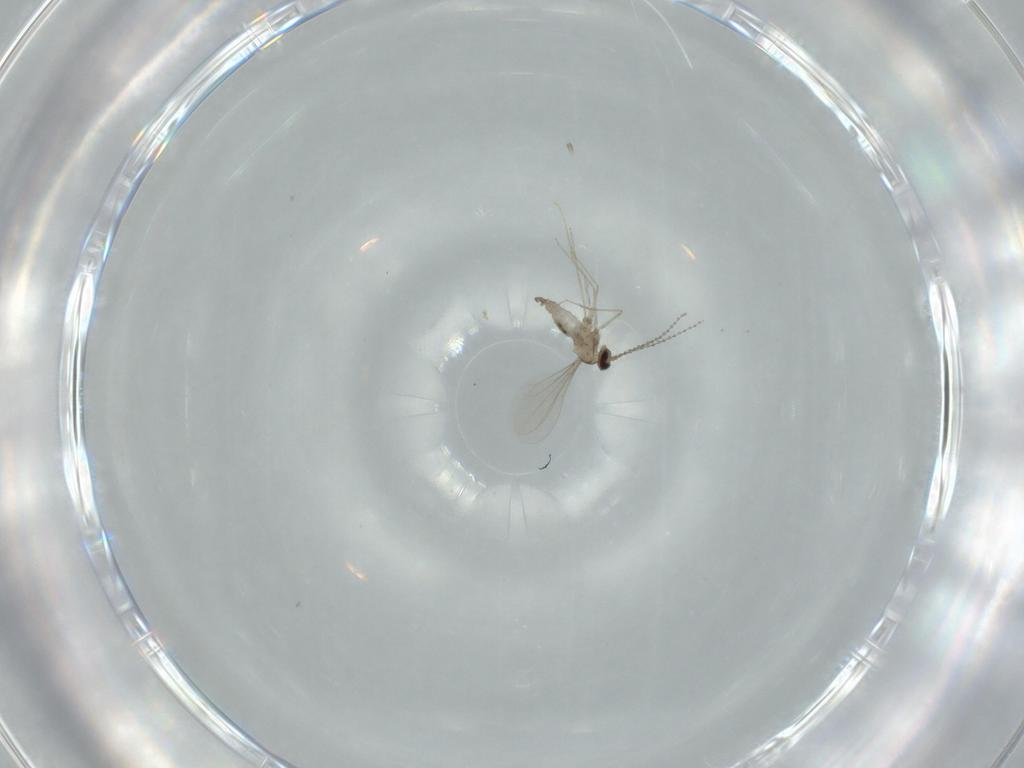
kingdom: Animalia
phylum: Arthropoda
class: Insecta
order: Diptera
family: Cecidomyiidae
